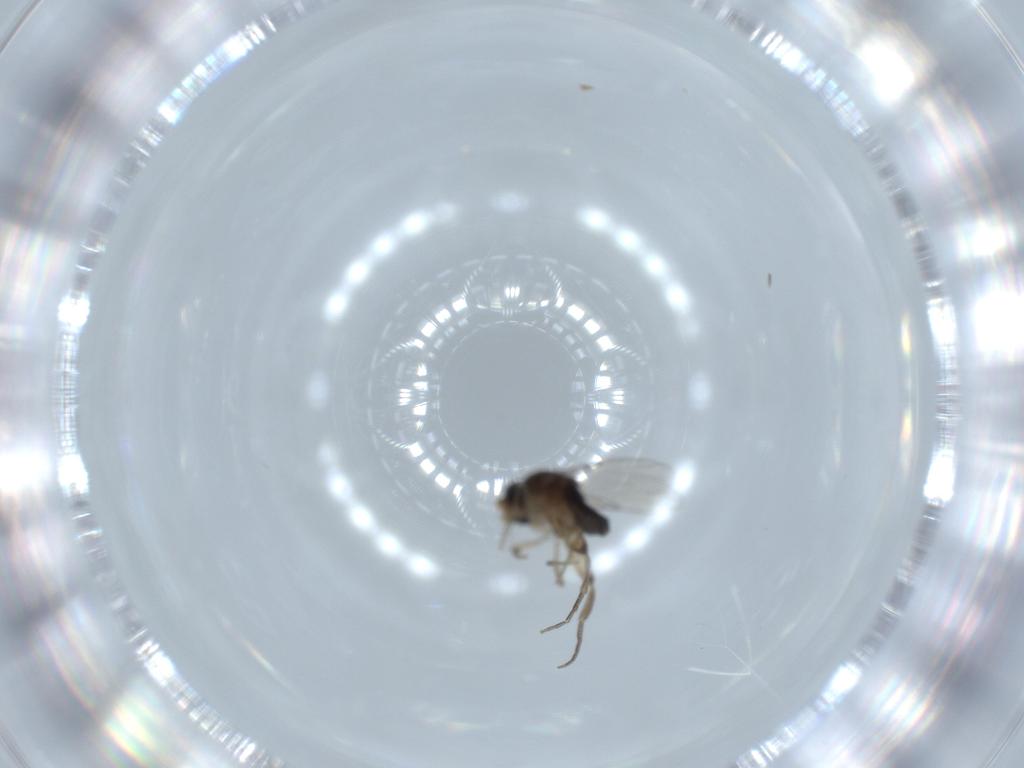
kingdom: Animalia
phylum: Arthropoda
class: Insecta
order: Diptera
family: Phoridae
